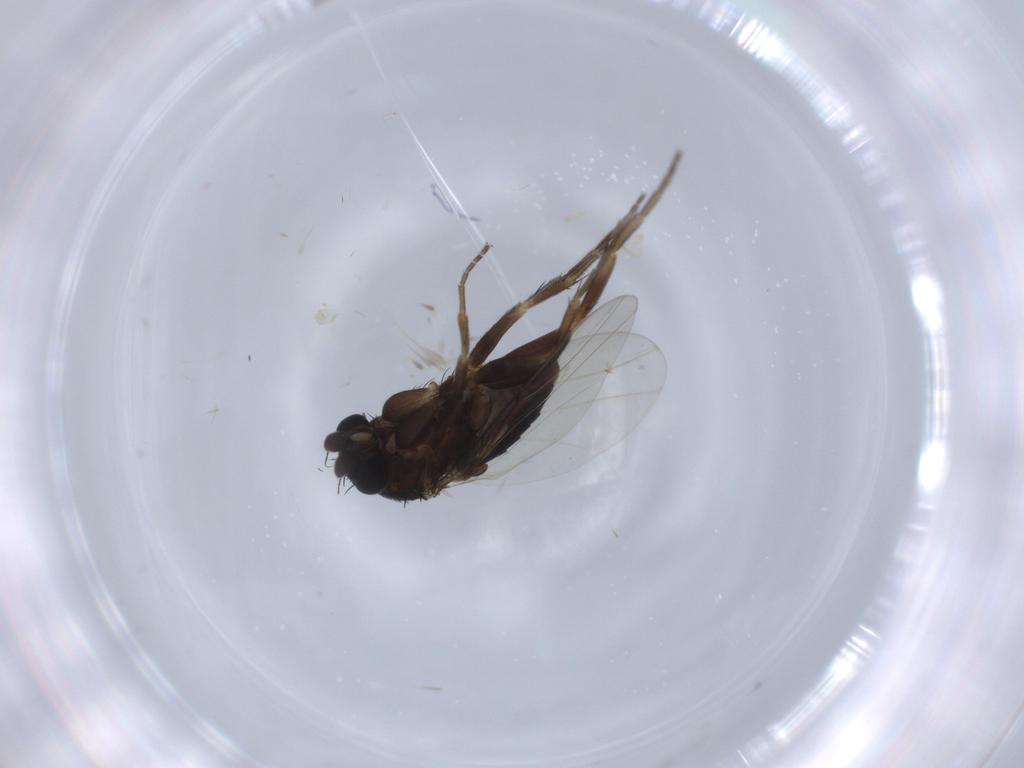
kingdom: Animalia
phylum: Arthropoda
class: Insecta
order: Diptera
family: Phoridae
